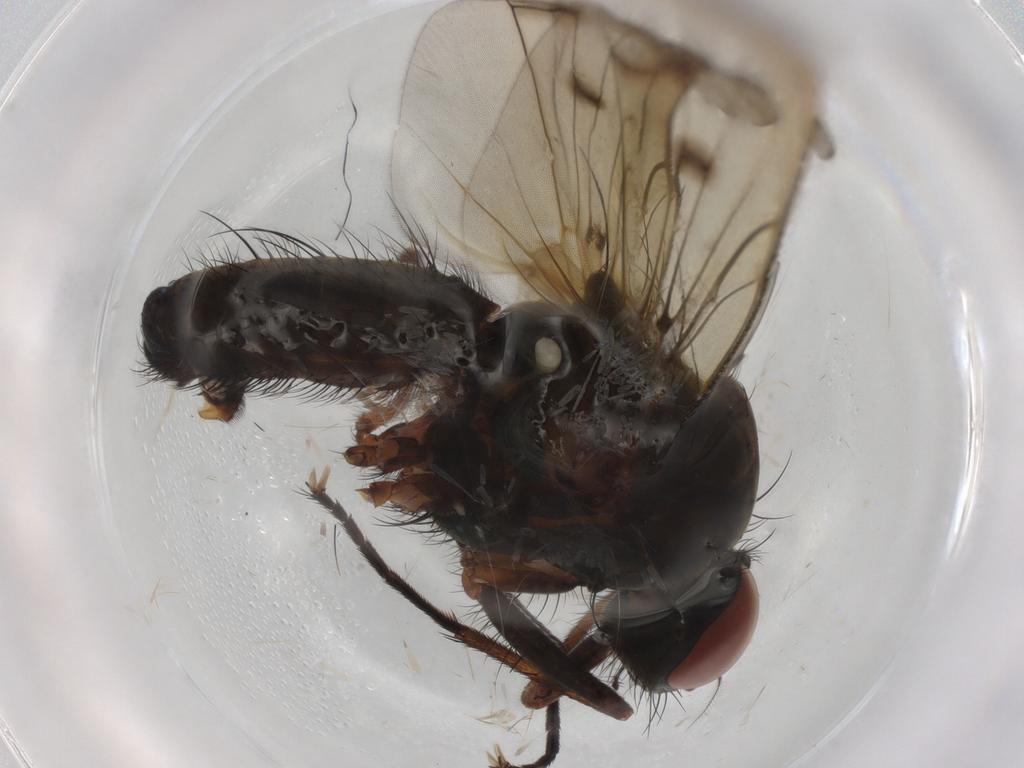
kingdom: Animalia
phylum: Arthropoda
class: Insecta
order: Diptera
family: Anthomyiidae
